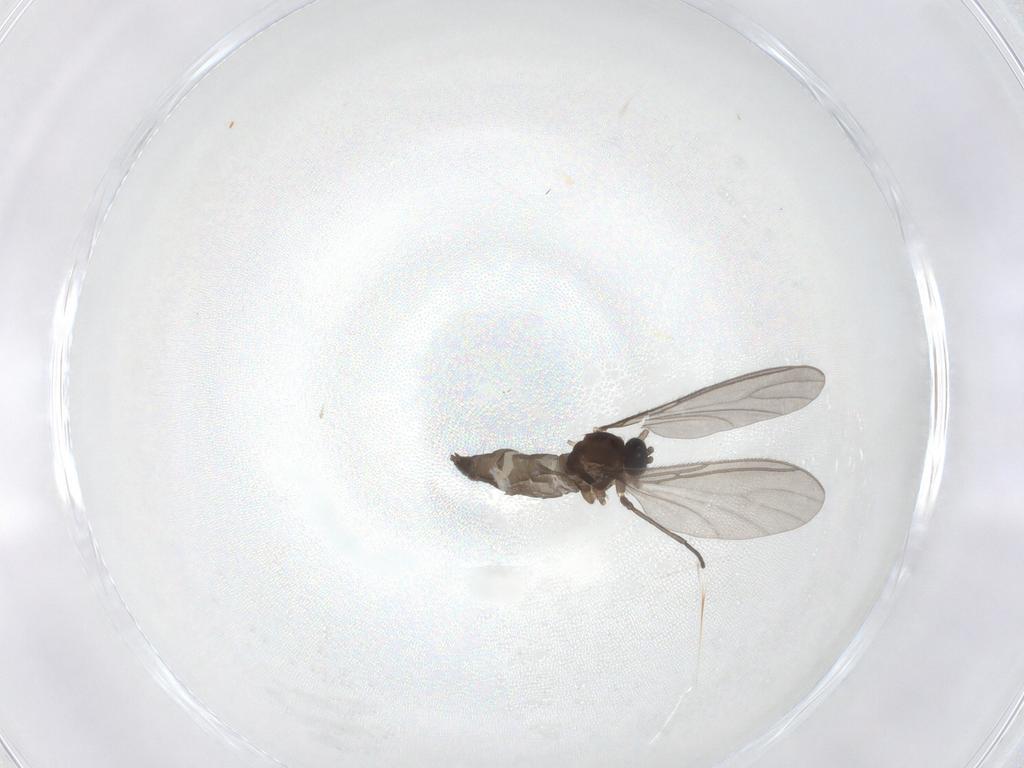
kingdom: Animalia
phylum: Arthropoda
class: Insecta
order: Diptera
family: Sciaridae
